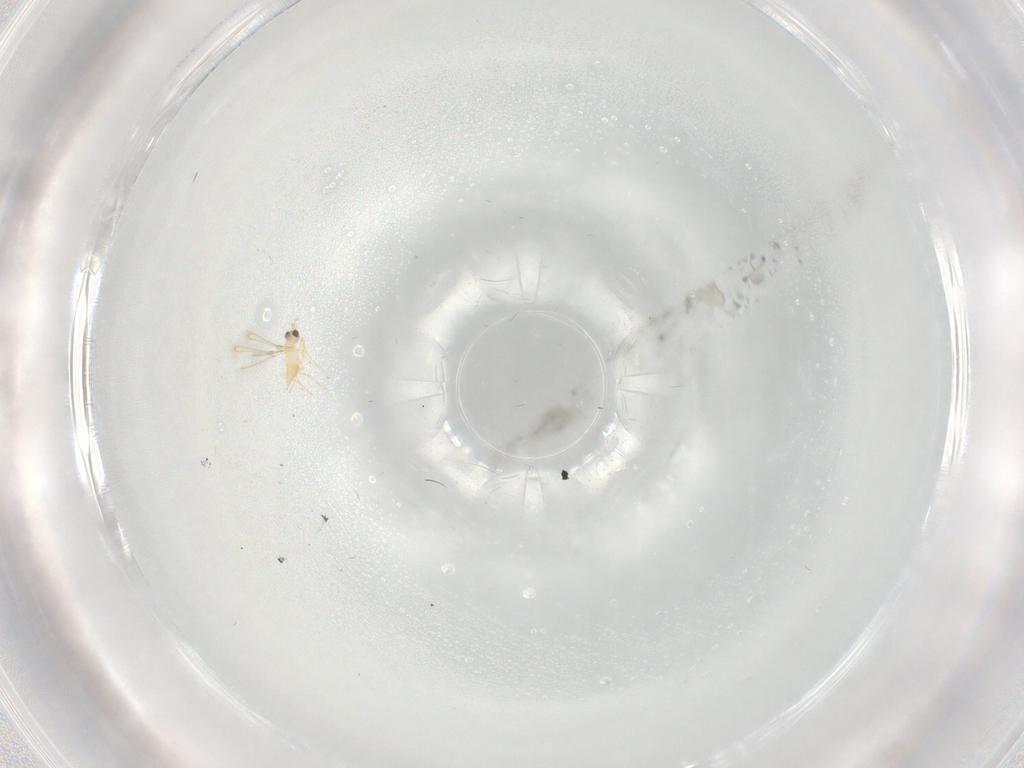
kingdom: Animalia
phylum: Arthropoda
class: Insecta
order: Hymenoptera
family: Mymaridae
